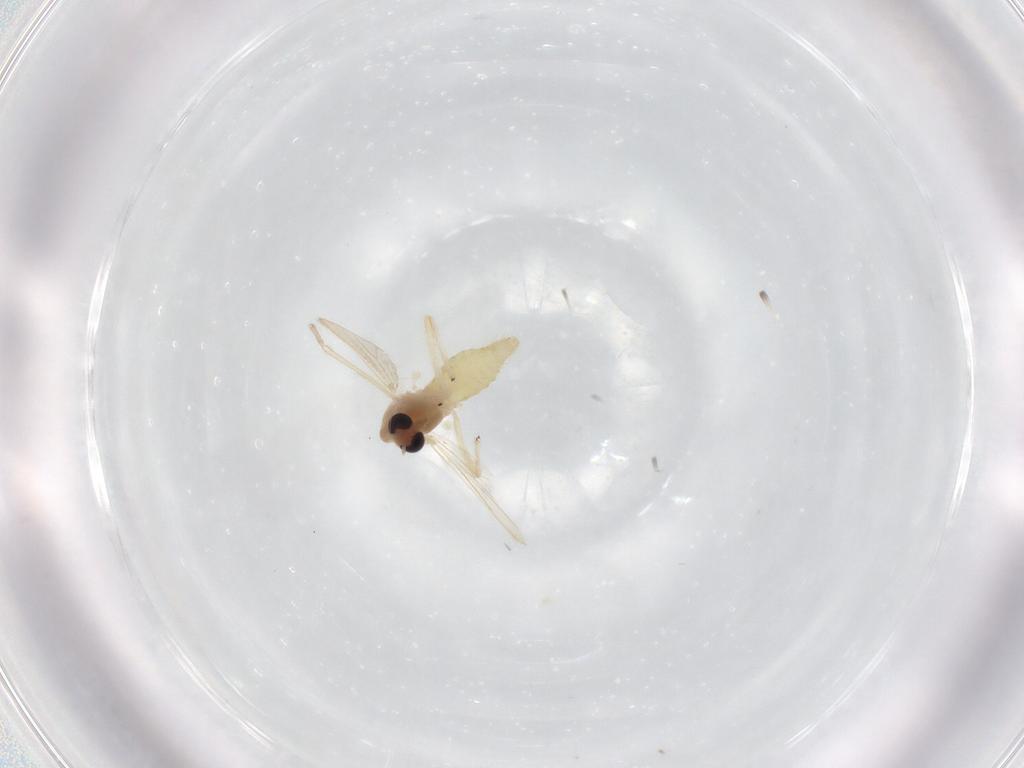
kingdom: Animalia
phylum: Arthropoda
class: Insecta
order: Diptera
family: Chironomidae
